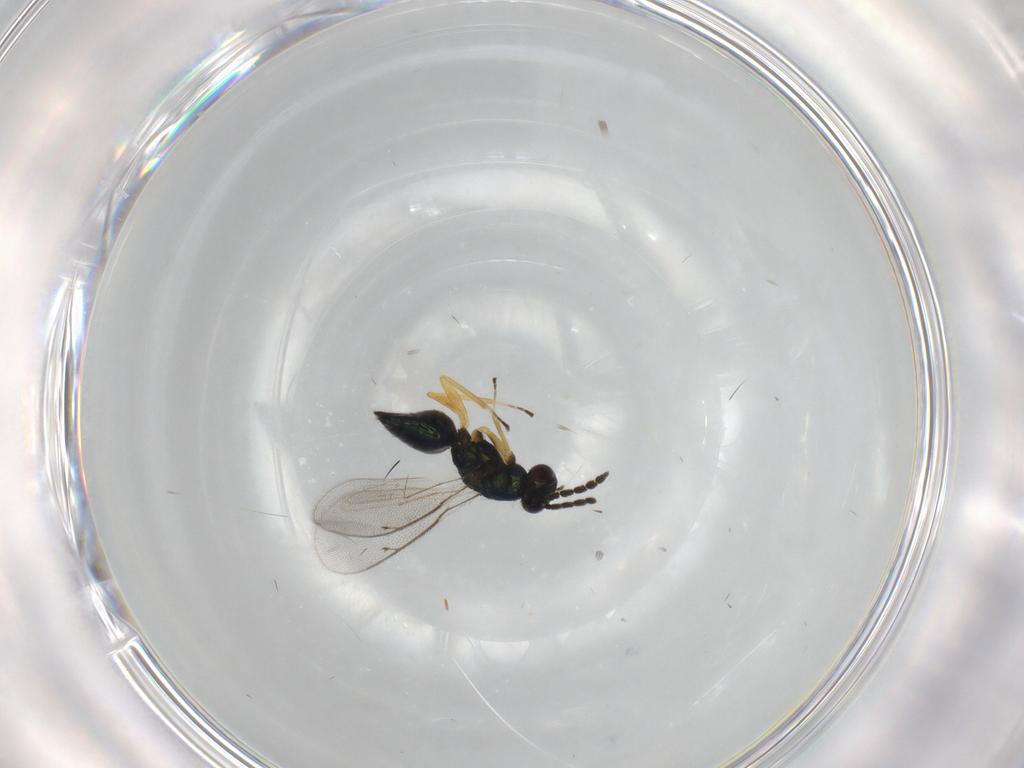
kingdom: Animalia
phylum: Arthropoda
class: Insecta
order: Hymenoptera
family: Eulophidae
